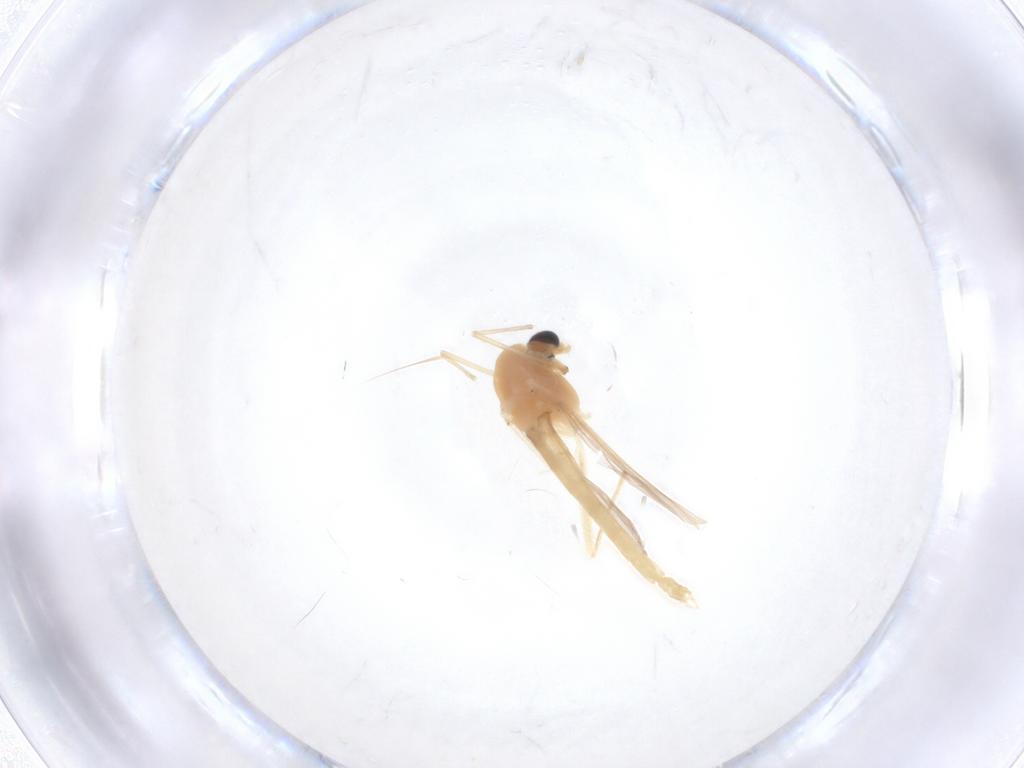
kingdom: Animalia
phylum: Arthropoda
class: Insecta
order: Diptera
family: Chironomidae
